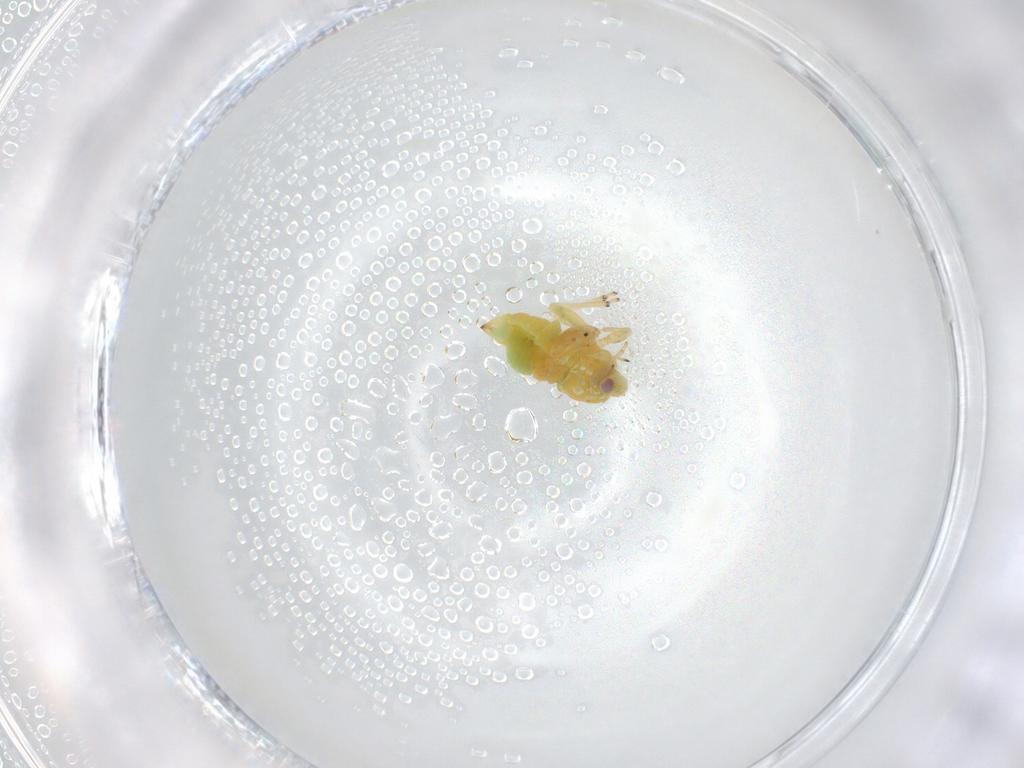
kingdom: Animalia
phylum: Arthropoda
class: Insecta
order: Hemiptera
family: Psyllidae
